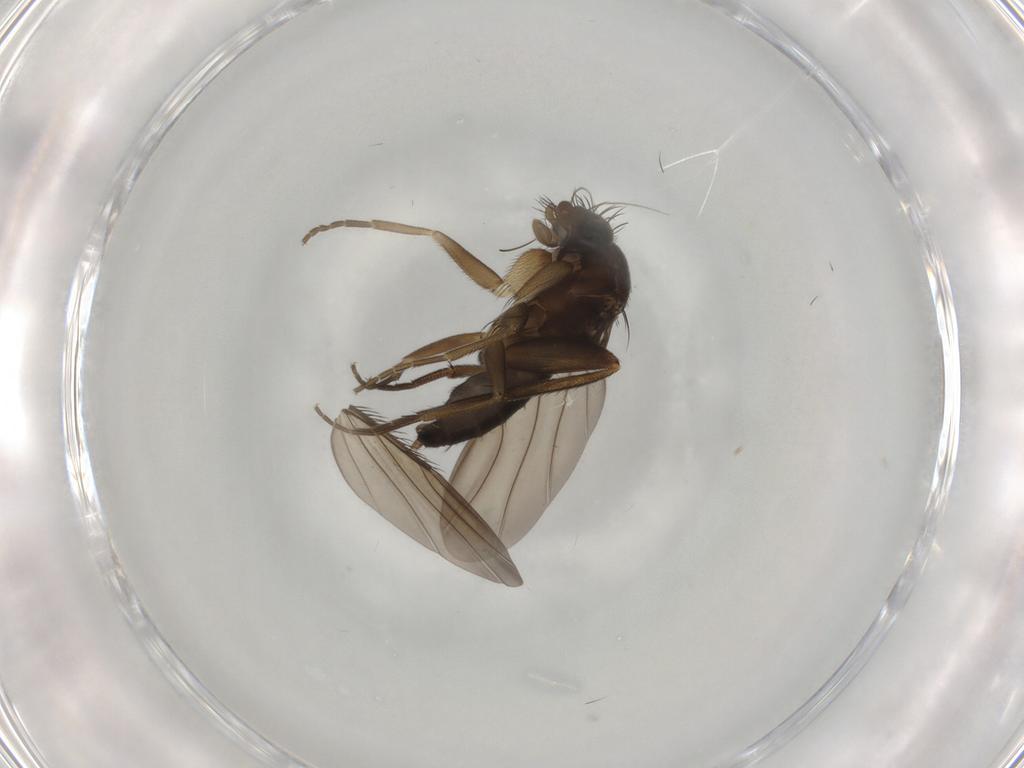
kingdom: Animalia
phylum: Arthropoda
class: Insecta
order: Diptera
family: Phoridae
